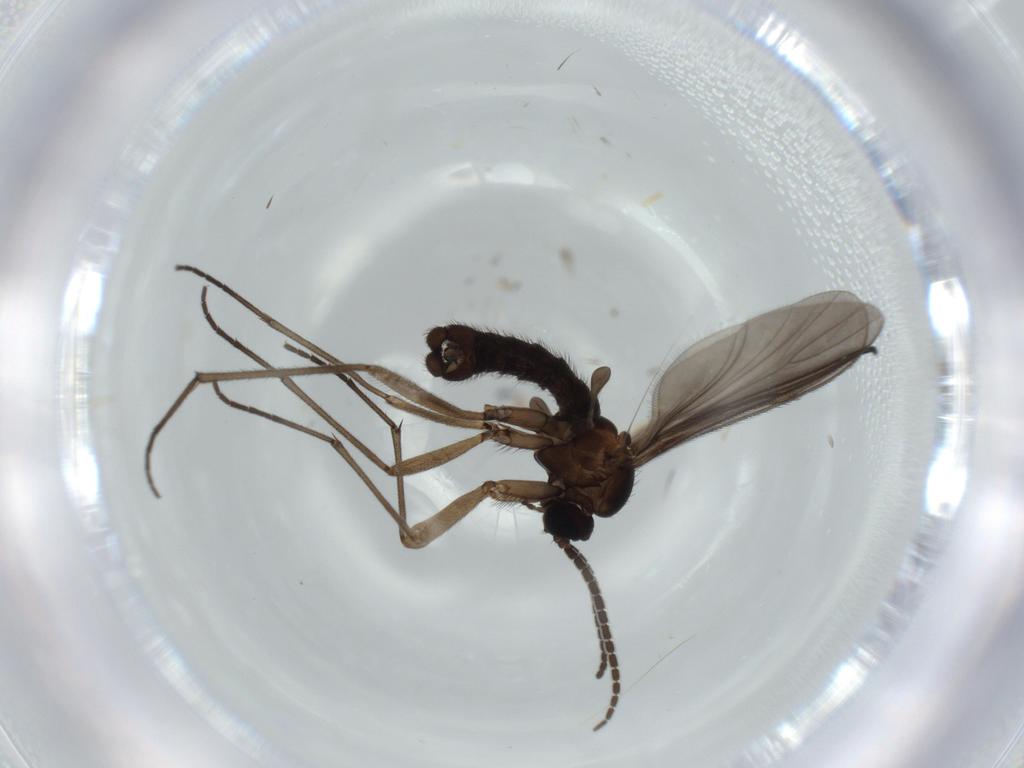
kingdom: Animalia
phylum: Arthropoda
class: Insecta
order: Diptera
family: Sciaridae
